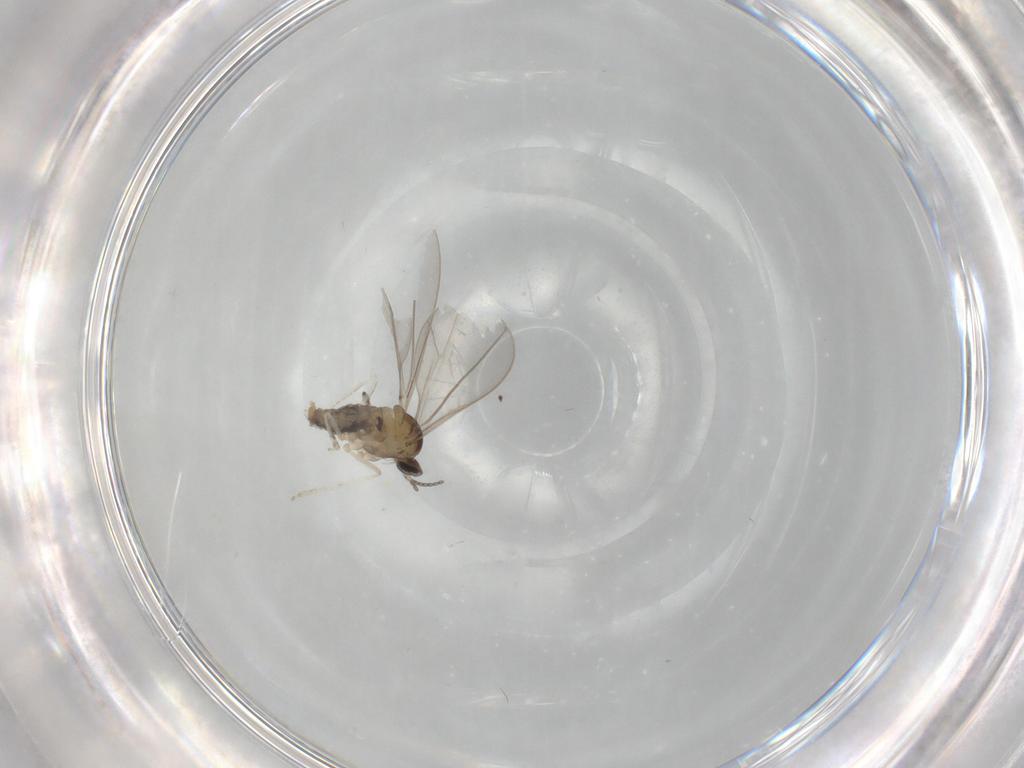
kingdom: Animalia
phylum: Arthropoda
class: Insecta
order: Diptera
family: Cecidomyiidae
